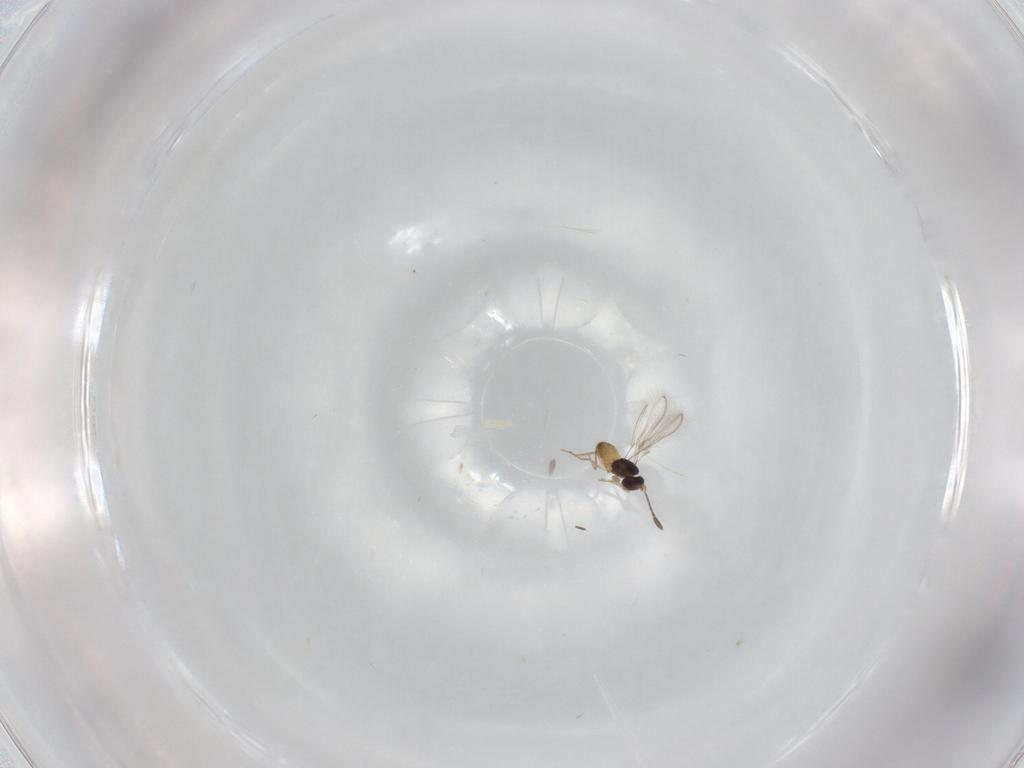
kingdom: Animalia
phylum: Arthropoda
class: Insecta
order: Hymenoptera
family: Mymaridae
